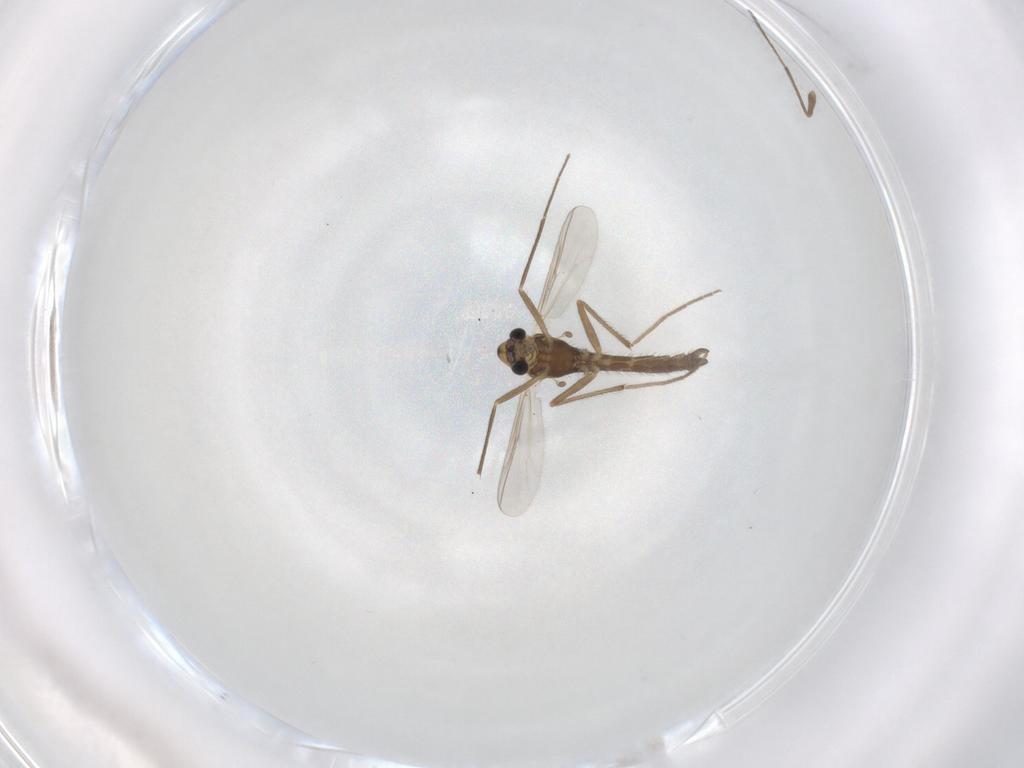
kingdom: Animalia
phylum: Arthropoda
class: Insecta
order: Diptera
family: Chironomidae
